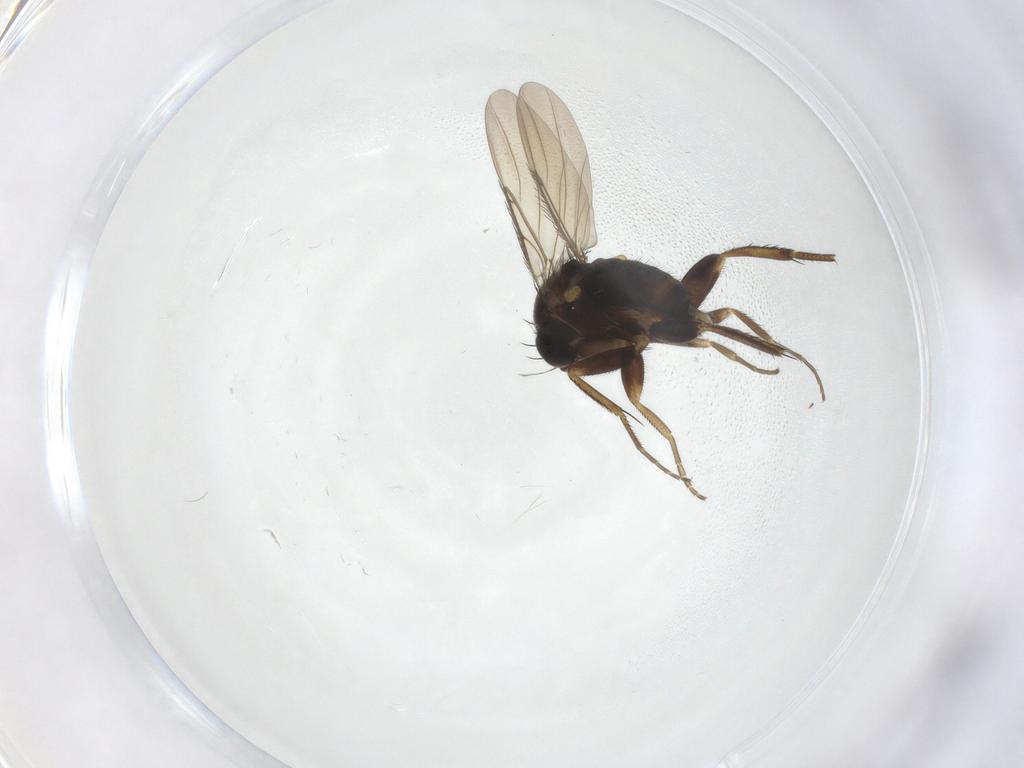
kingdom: Animalia
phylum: Arthropoda
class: Insecta
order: Diptera
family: Phoridae
